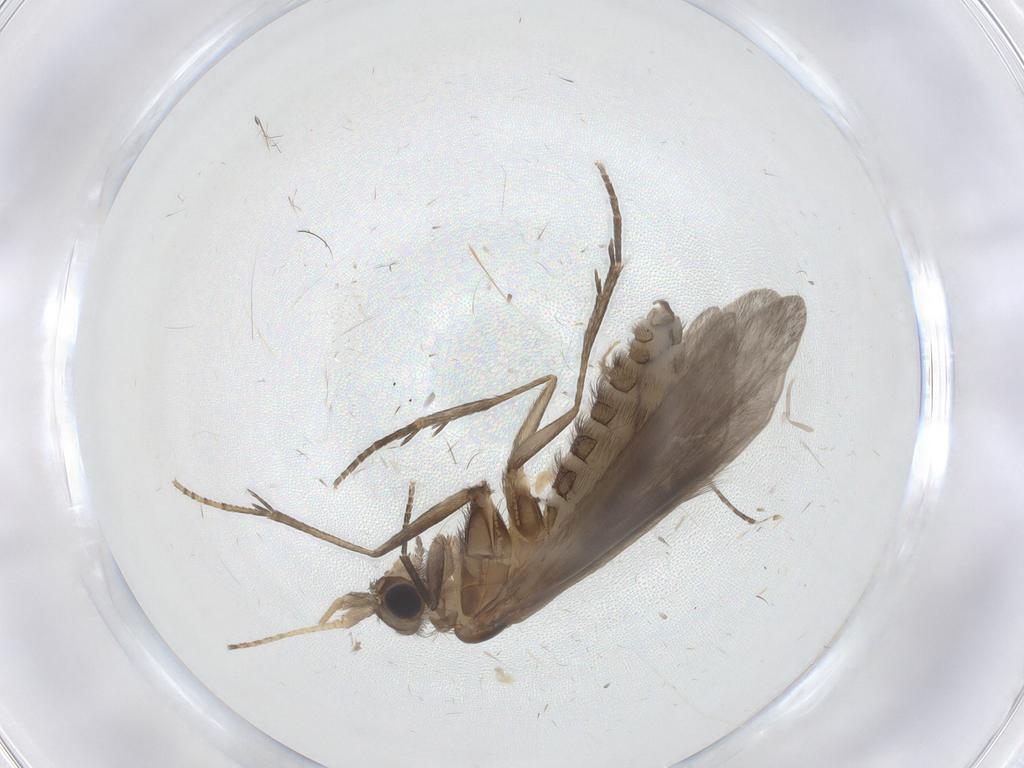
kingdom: Animalia
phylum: Arthropoda
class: Insecta
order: Trichoptera
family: Helicopsychidae
